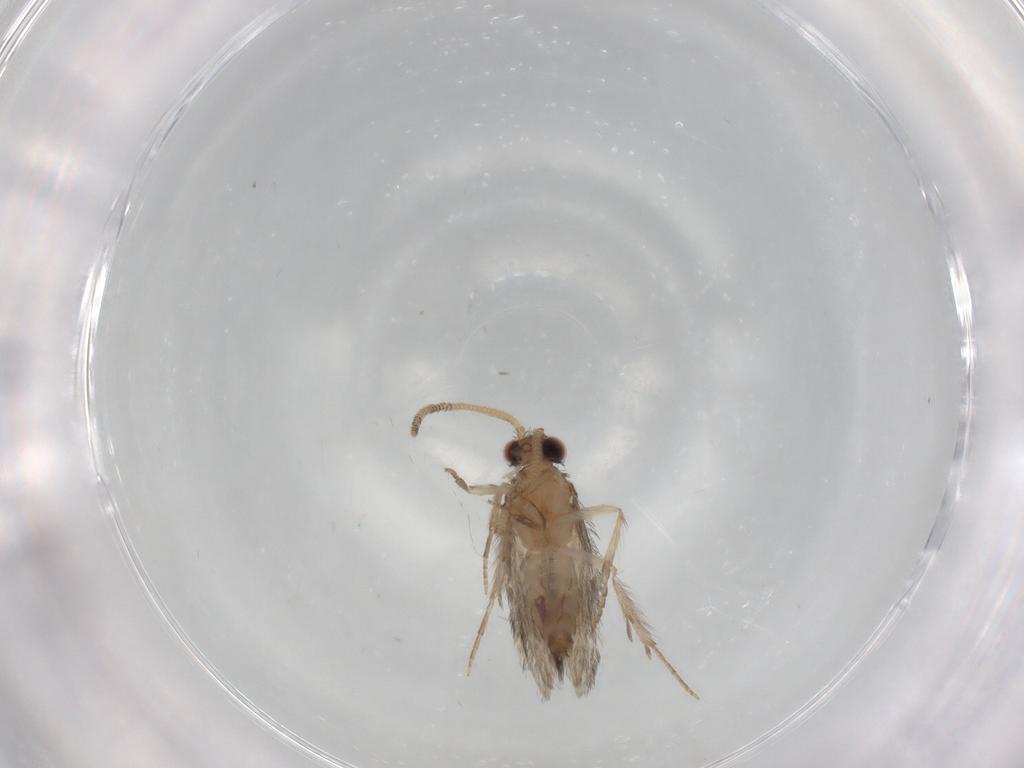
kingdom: Animalia
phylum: Arthropoda
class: Insecta
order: Trichoptera
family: Hydroptilidae
